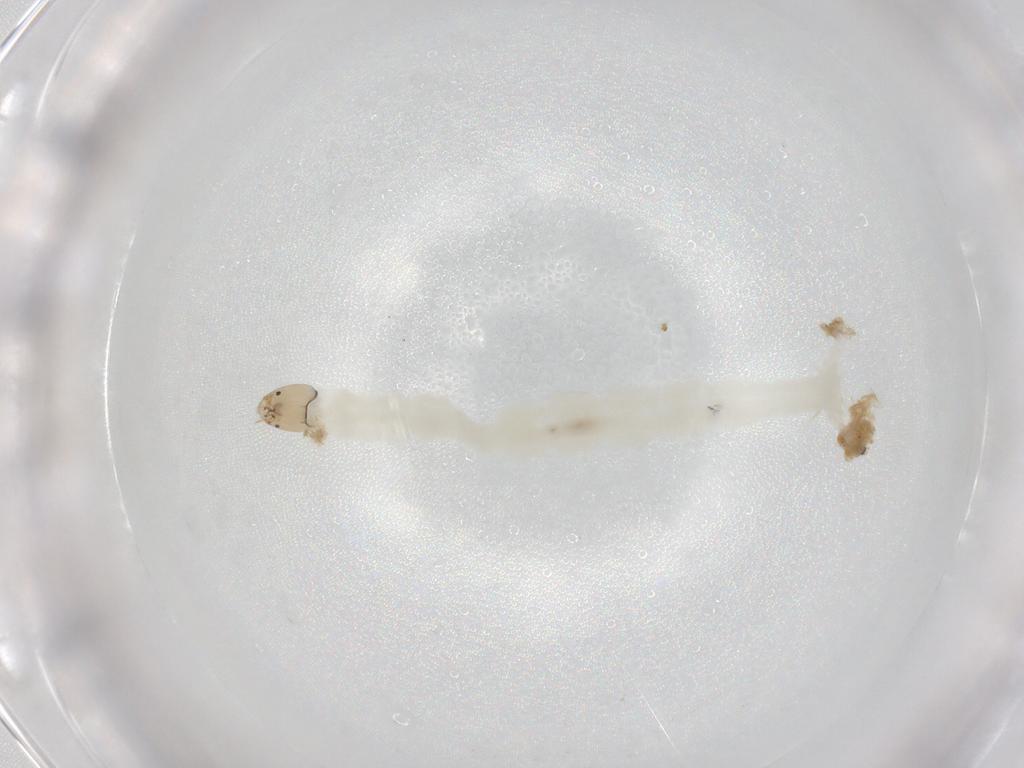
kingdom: Animalia
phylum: Arthropoda
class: Insecta
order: Diptera
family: Chironomidae
